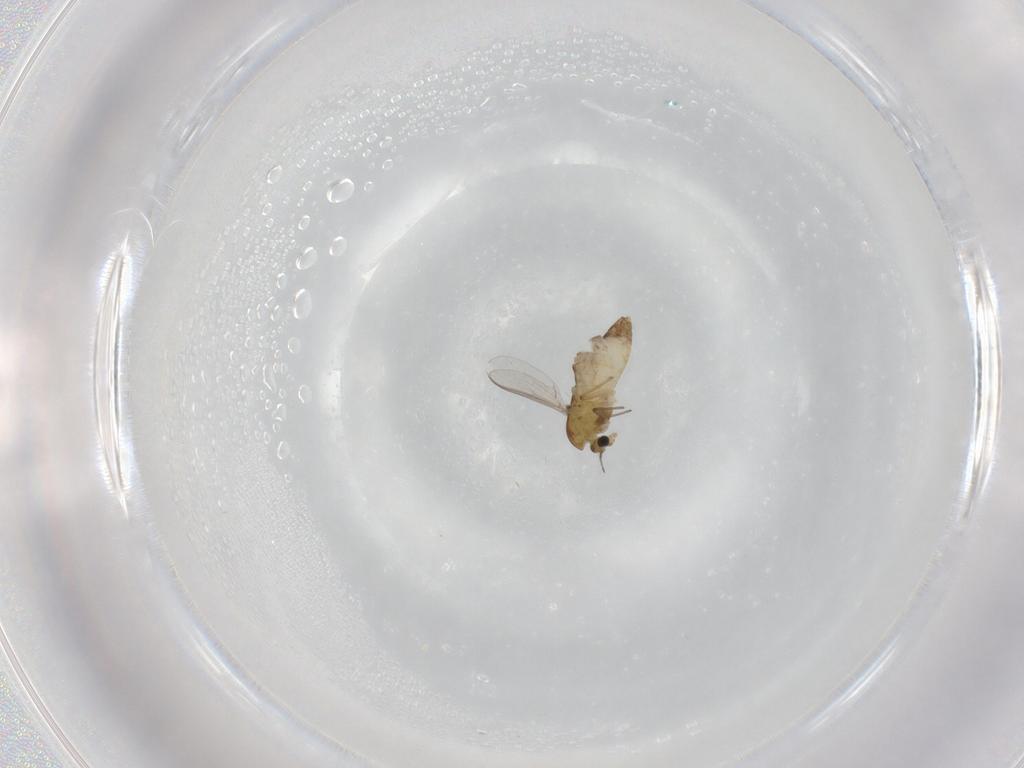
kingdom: Animalia
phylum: Arthropoda
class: Insecta
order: Diptera
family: Chironomidae
